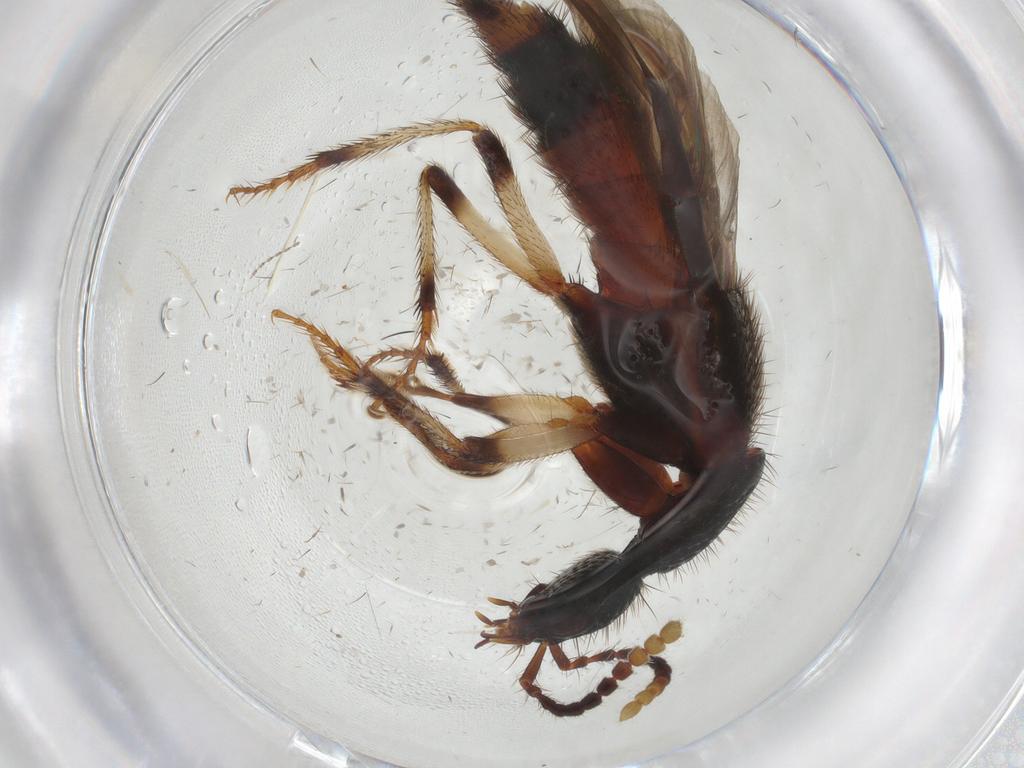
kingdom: Animalia
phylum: Arthropoda
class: Insecta
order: Coleoptera
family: Staphylinidae
